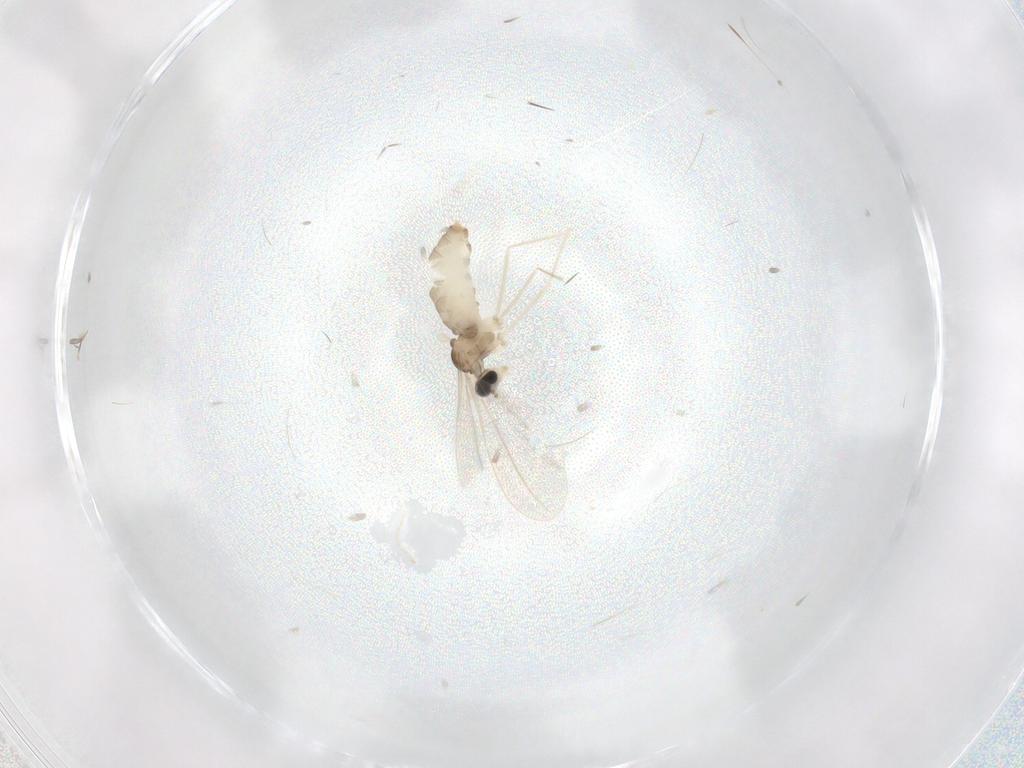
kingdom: Animalia
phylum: Arthropoda
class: Insecta
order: Diptera
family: Cecidomyiidae
